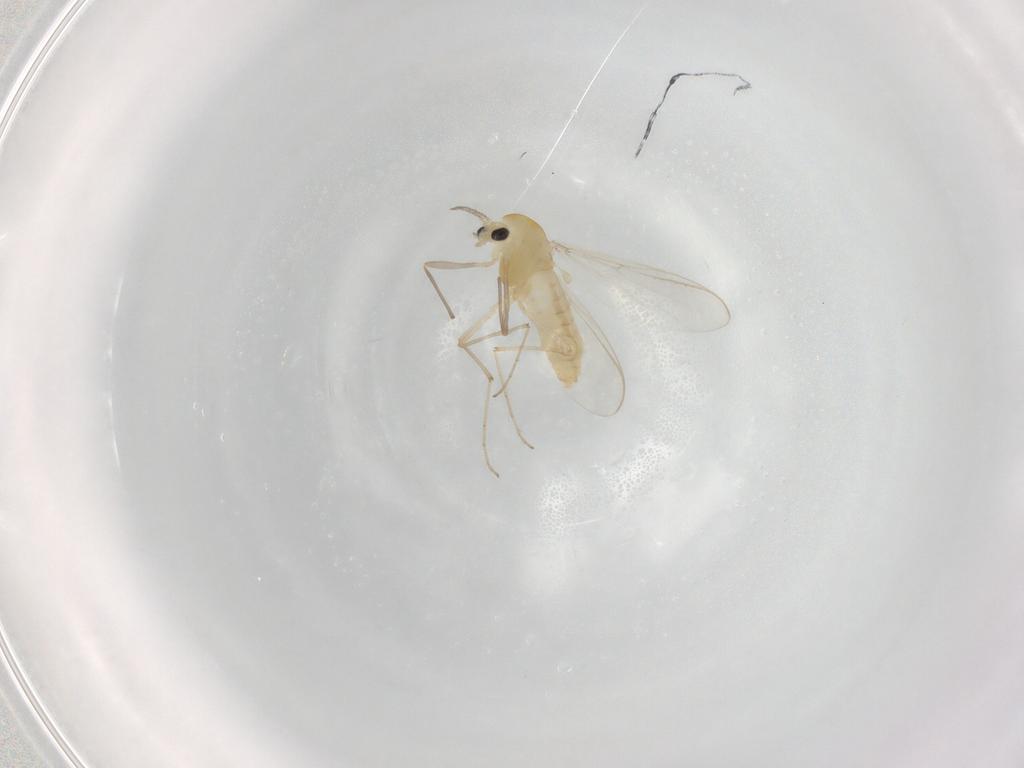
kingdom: Animalia
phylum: Arthropoda
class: Insecta
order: Diptera
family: Chironomidae
